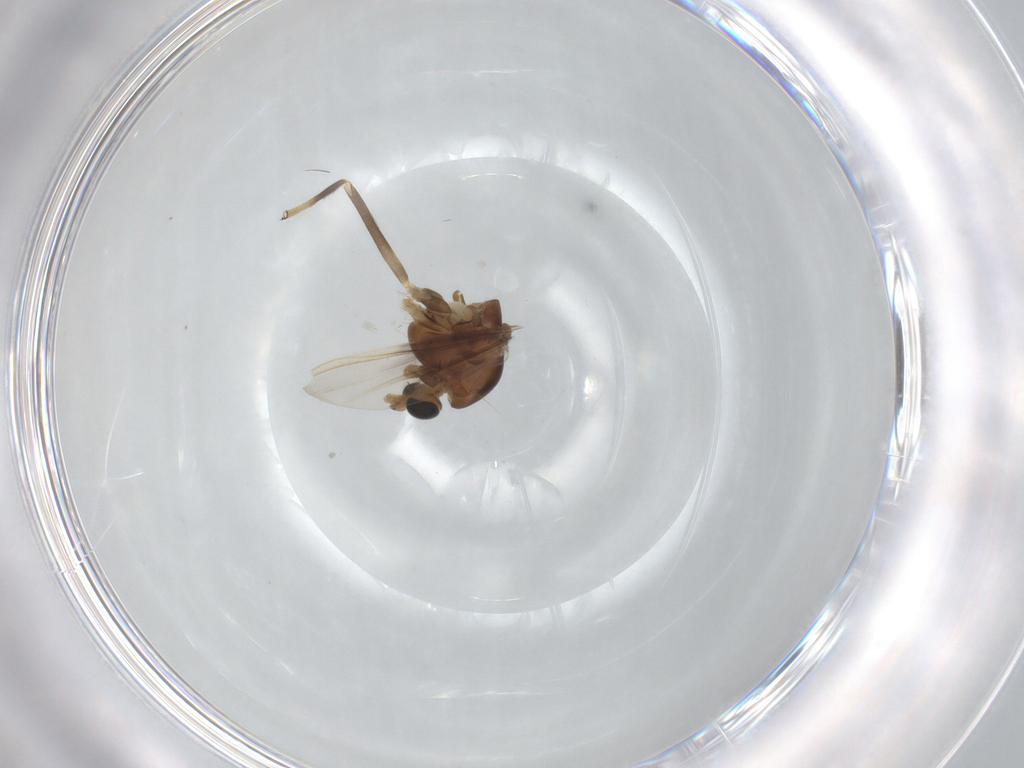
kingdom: Animalia
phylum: Arthropoda
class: Insecta
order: Diptera
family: Chironomidae
